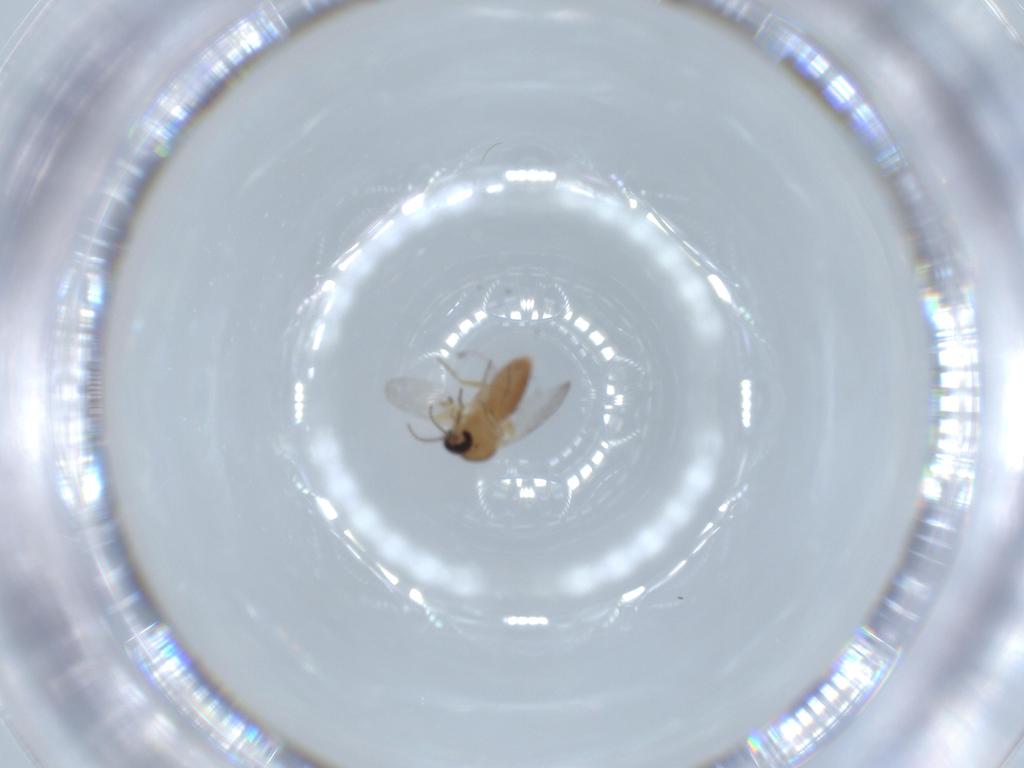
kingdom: Animalia
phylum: Arthropoda
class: Insecta
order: Diptera
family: Ceratopogonidae
